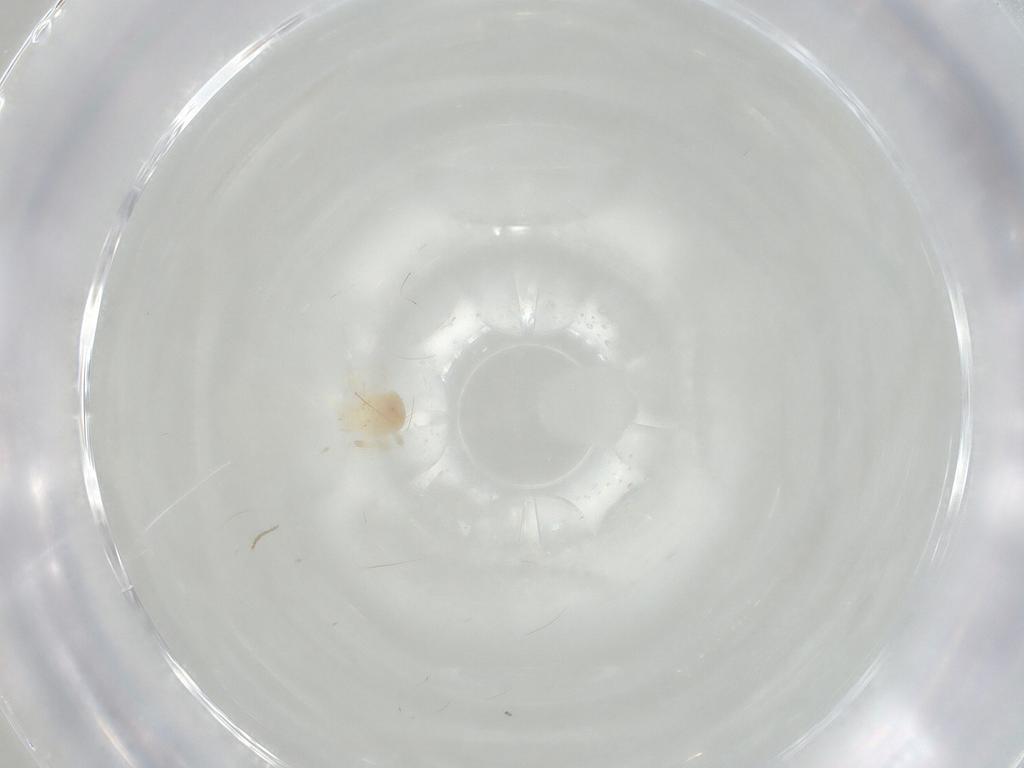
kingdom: Animalia
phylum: Arthropoda
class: Arachnida
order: Trombidiformes
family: Anystidae
